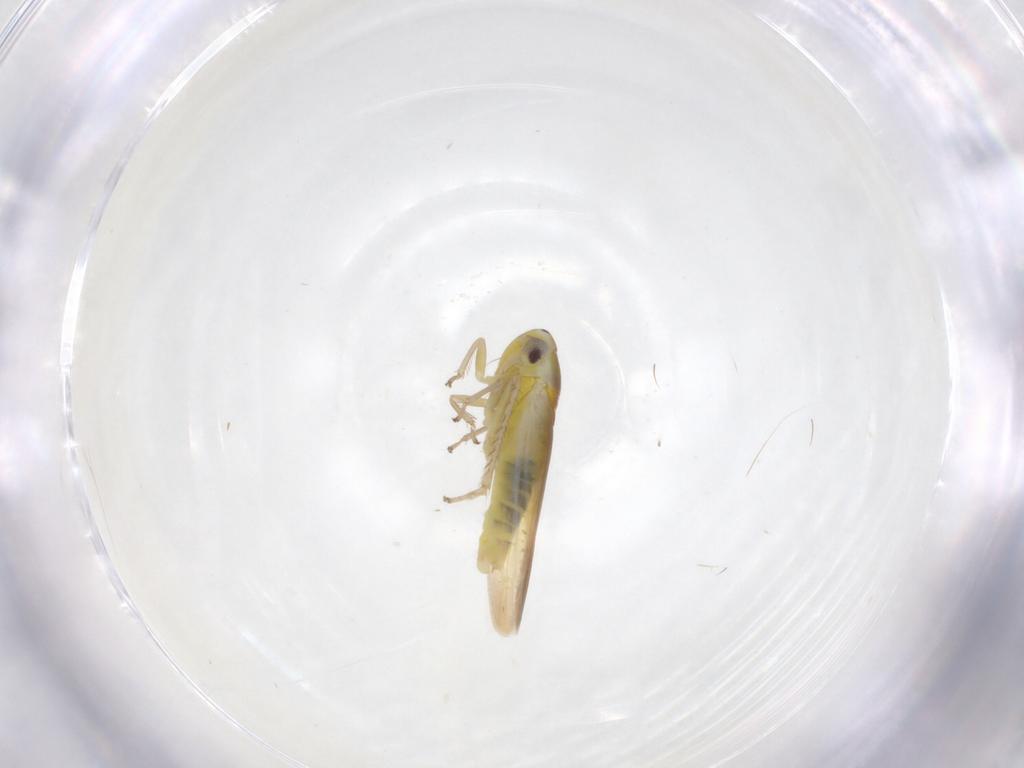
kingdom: Animalia
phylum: Arthropoda
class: Insecta
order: Hemiptera
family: Cicadellidae
